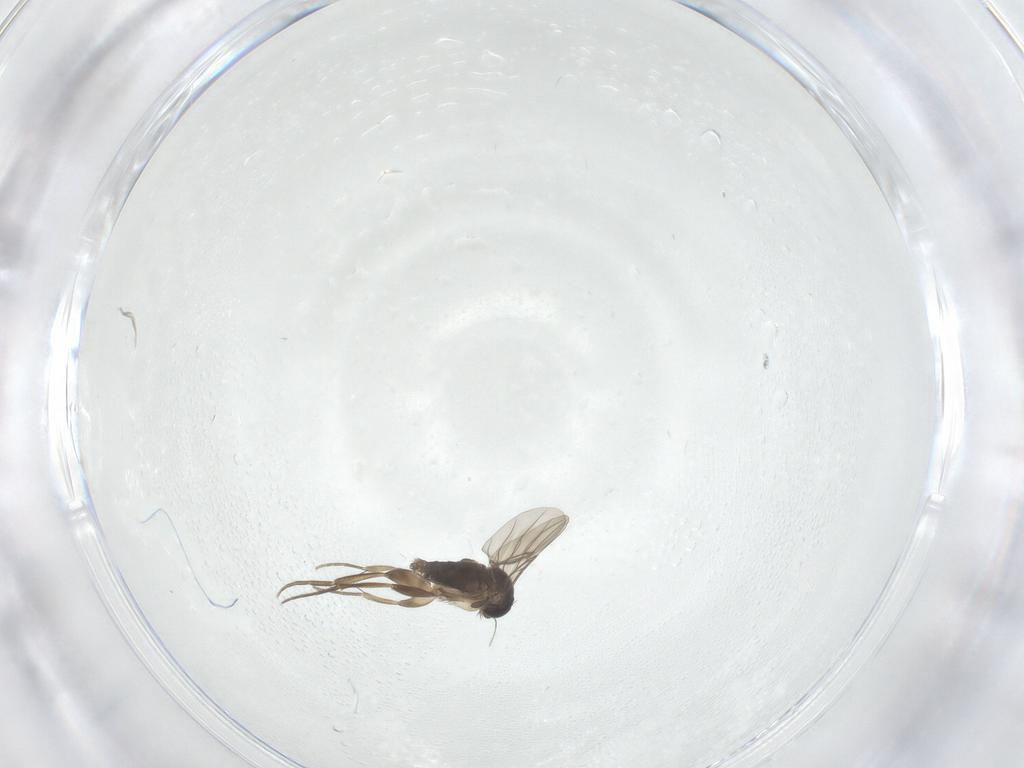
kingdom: Animalia
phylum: Arthropoda
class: Insecta
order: Diptera
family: Phoridae
